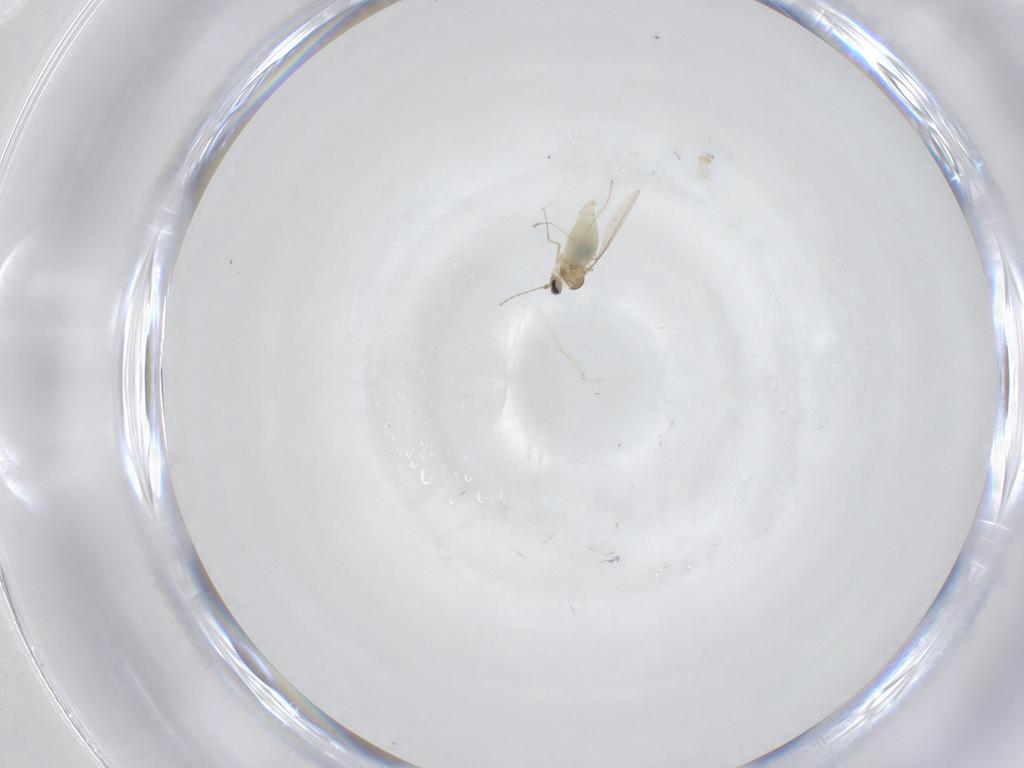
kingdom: Animalia
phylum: Arthropoda
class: Insecta
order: Diptera
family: Cecidomyiidae
